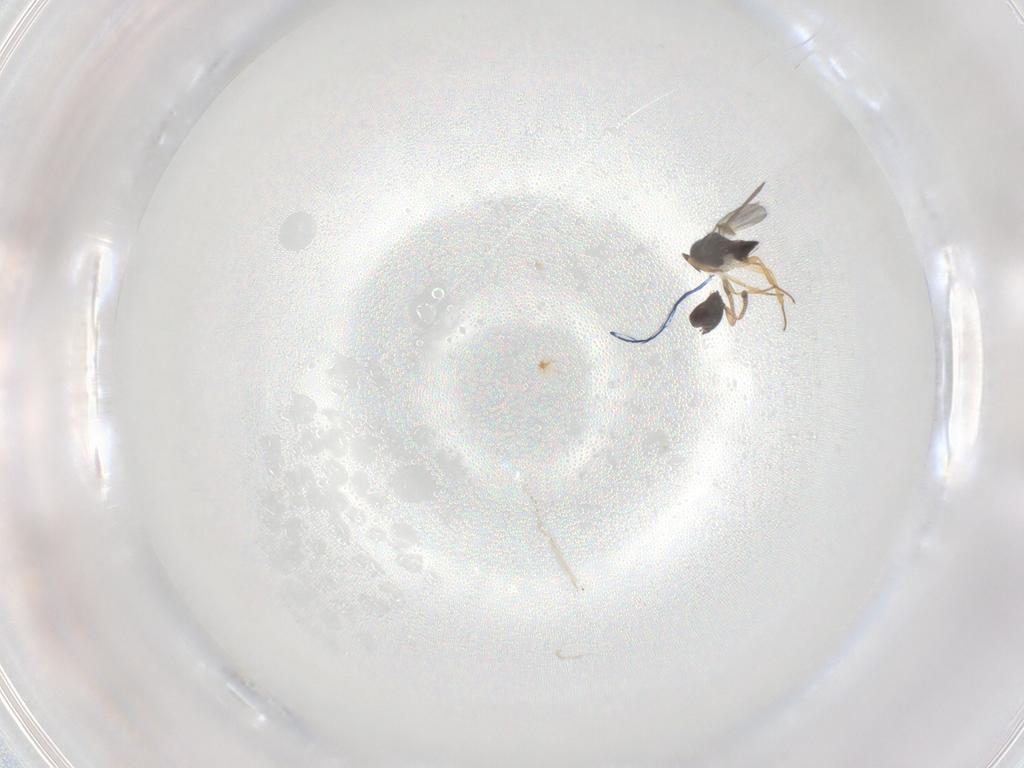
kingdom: Animalia
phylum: Arthropoda
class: Insecta
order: Hymenoptera
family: Encyrtidae
